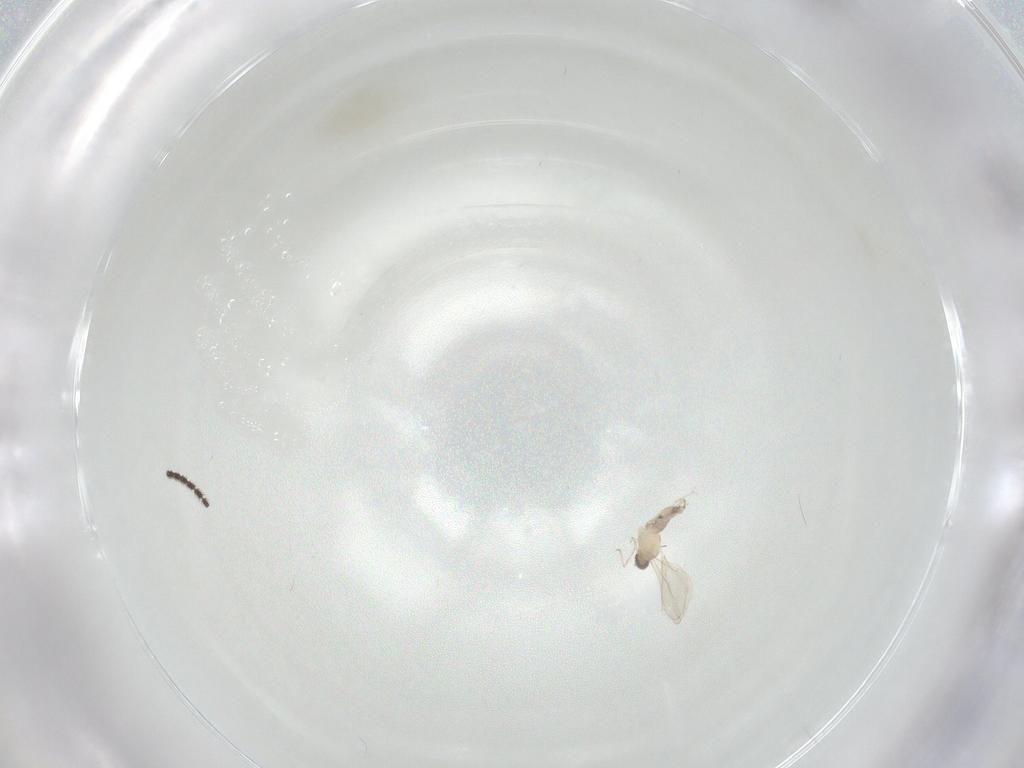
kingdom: Animalia
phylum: Arthropoda
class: Insecta
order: Diptera
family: Cecidomyiidae
